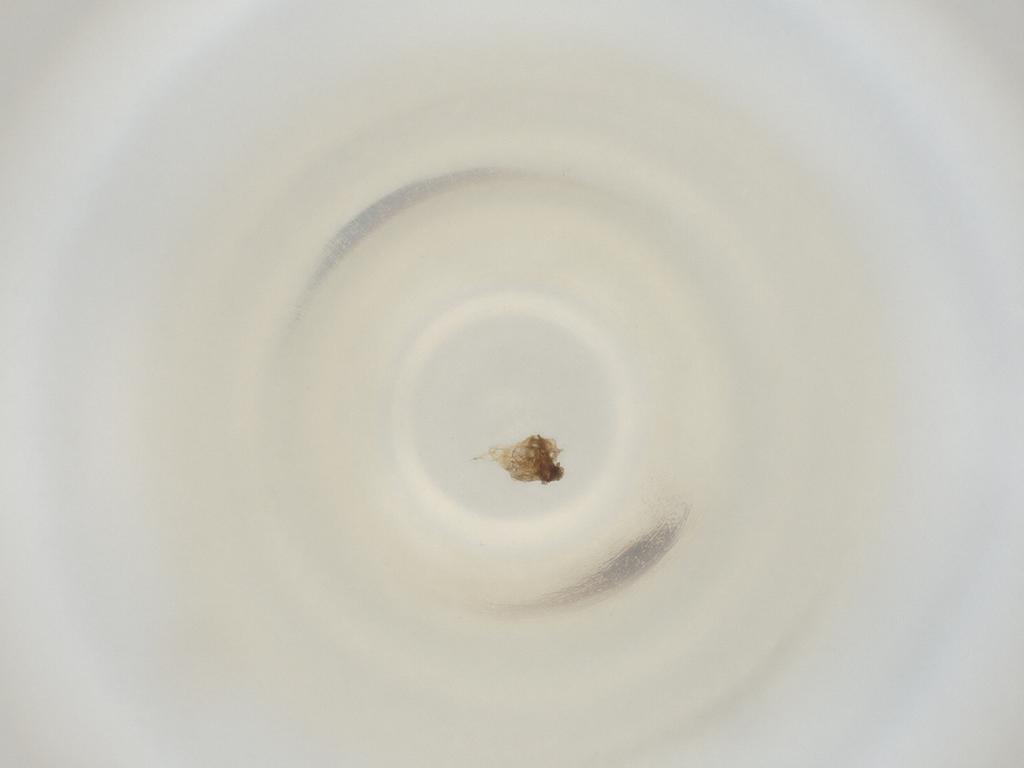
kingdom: Animalia
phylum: Arthropoda
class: Insecta
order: Diptera
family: Cecidomyiidae
